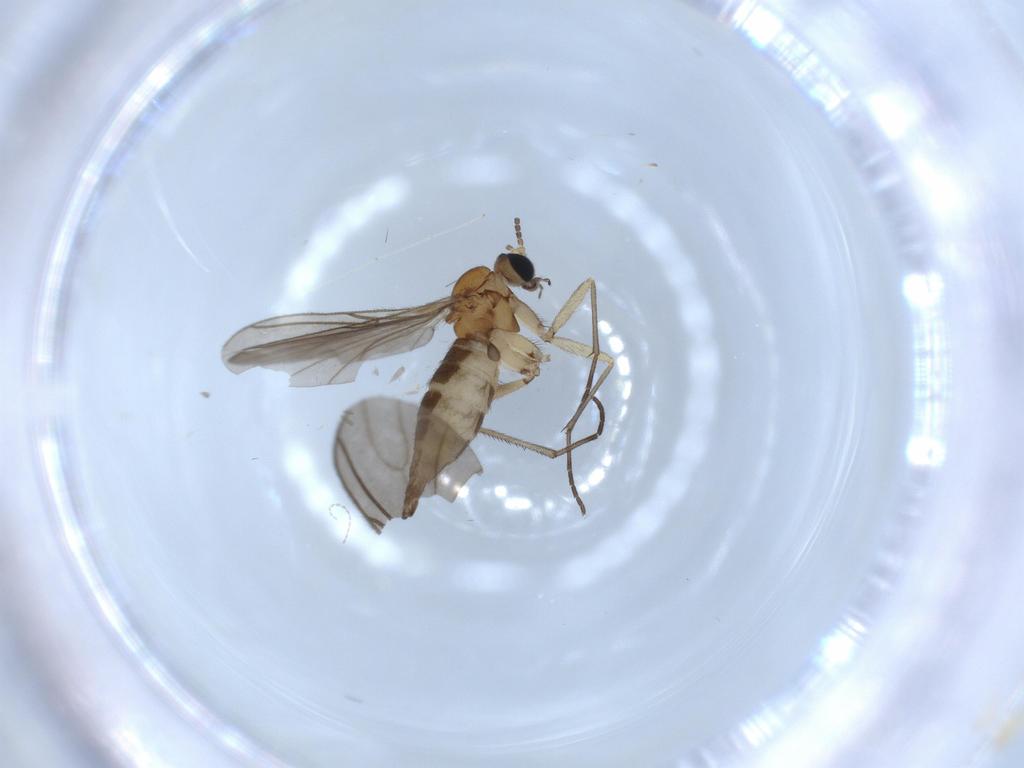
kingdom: Animalia
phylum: Arthropoda
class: Insecta
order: Diptera
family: Sciaridae
